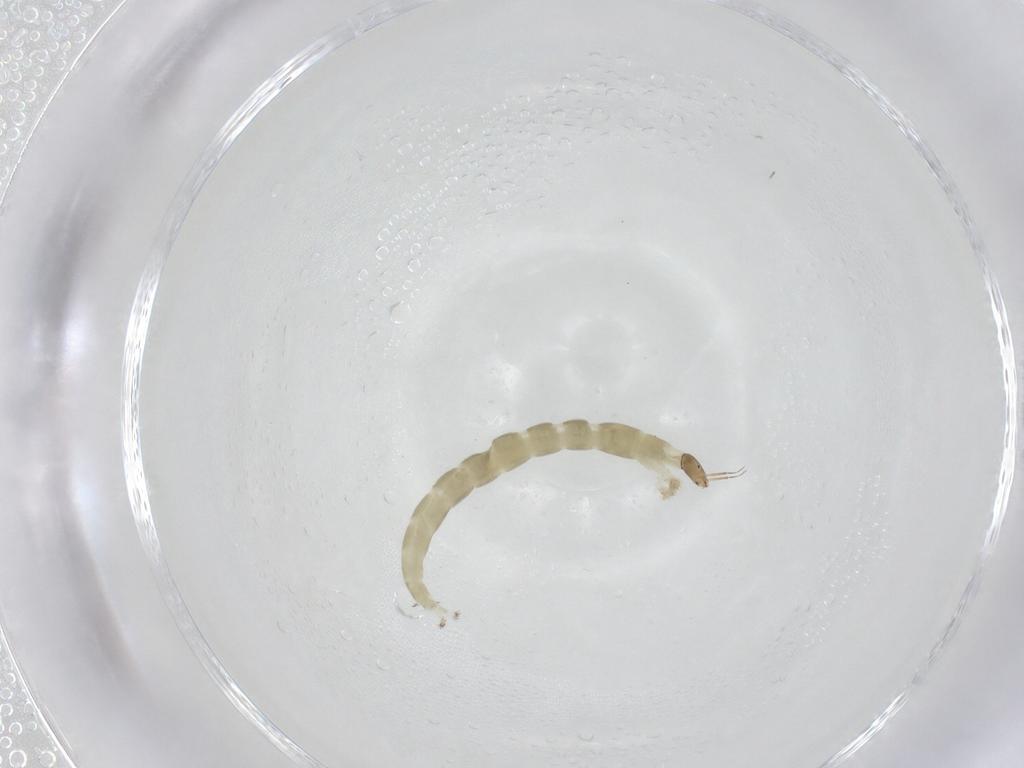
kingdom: Animalia
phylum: Arthropoda
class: Insecta
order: Diptera
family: Chironomidae
